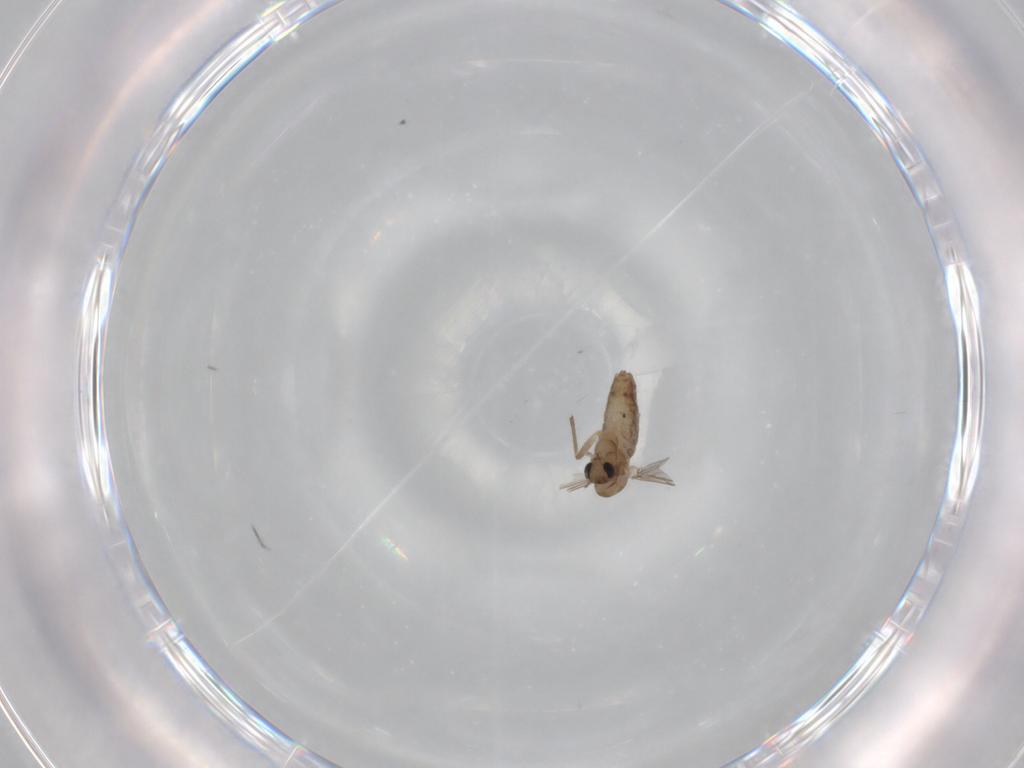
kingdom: Animalia
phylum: Arthropoda
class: Insecta
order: Diptera
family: Chironomidae
